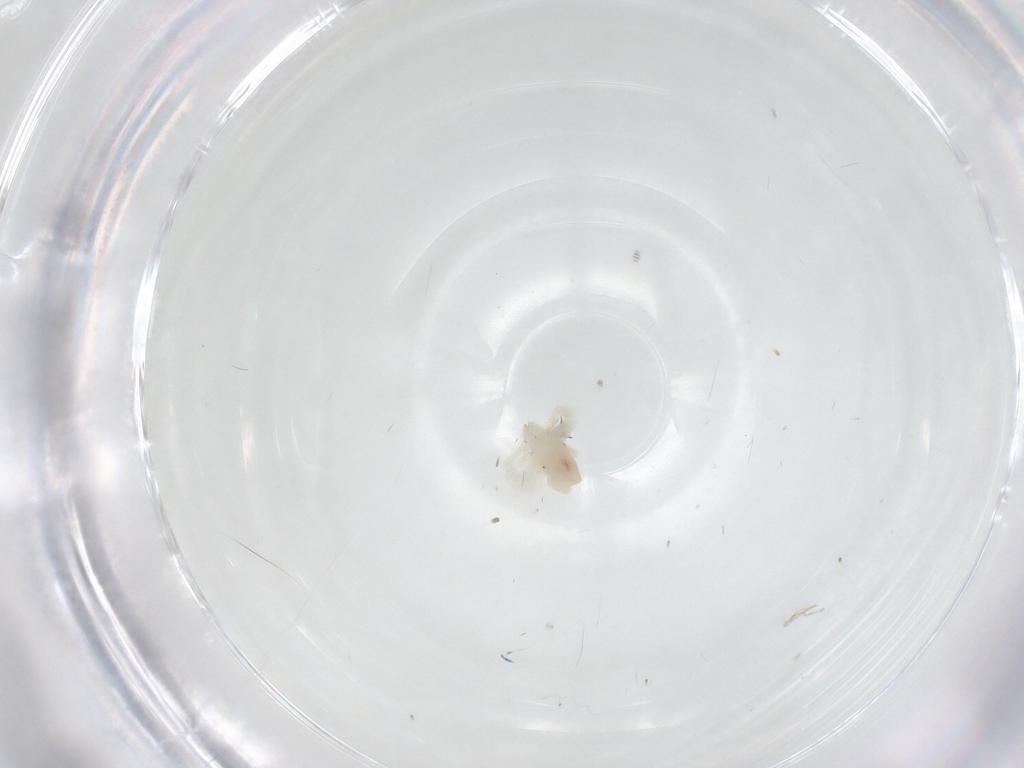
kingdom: Animalia
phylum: Arthropoda
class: Arachnida
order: Trombidiformes
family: Anystidae
